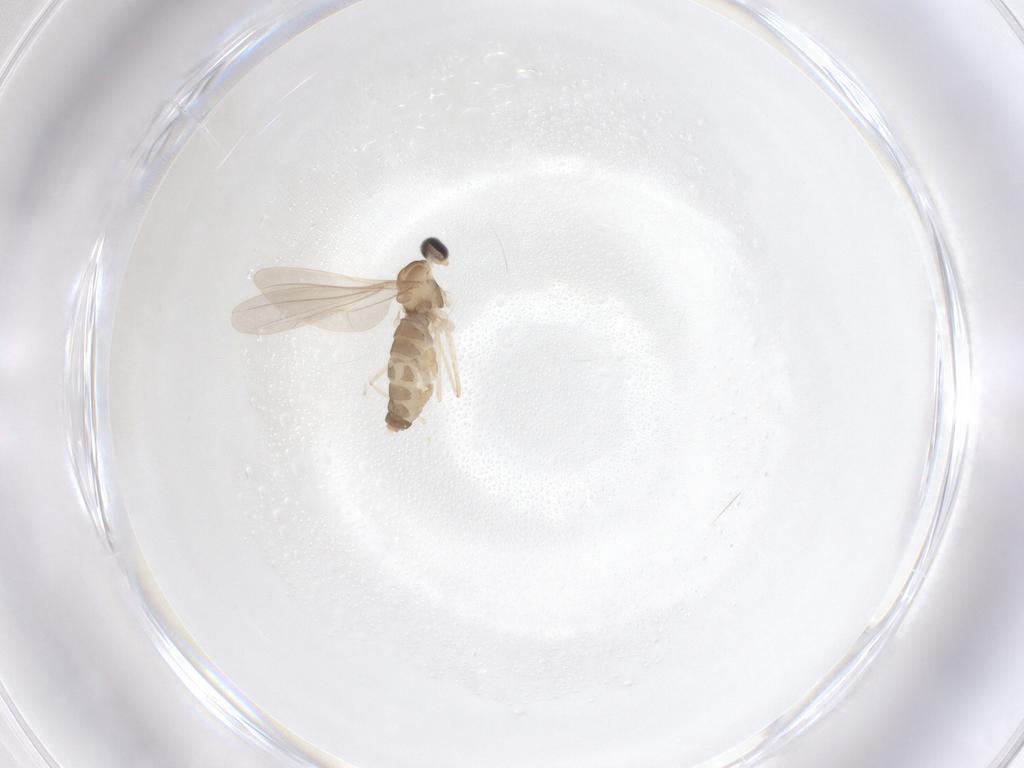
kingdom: Animalia
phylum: Arthropoda
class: Insecta
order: Diptera
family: Cecidomyiidae
